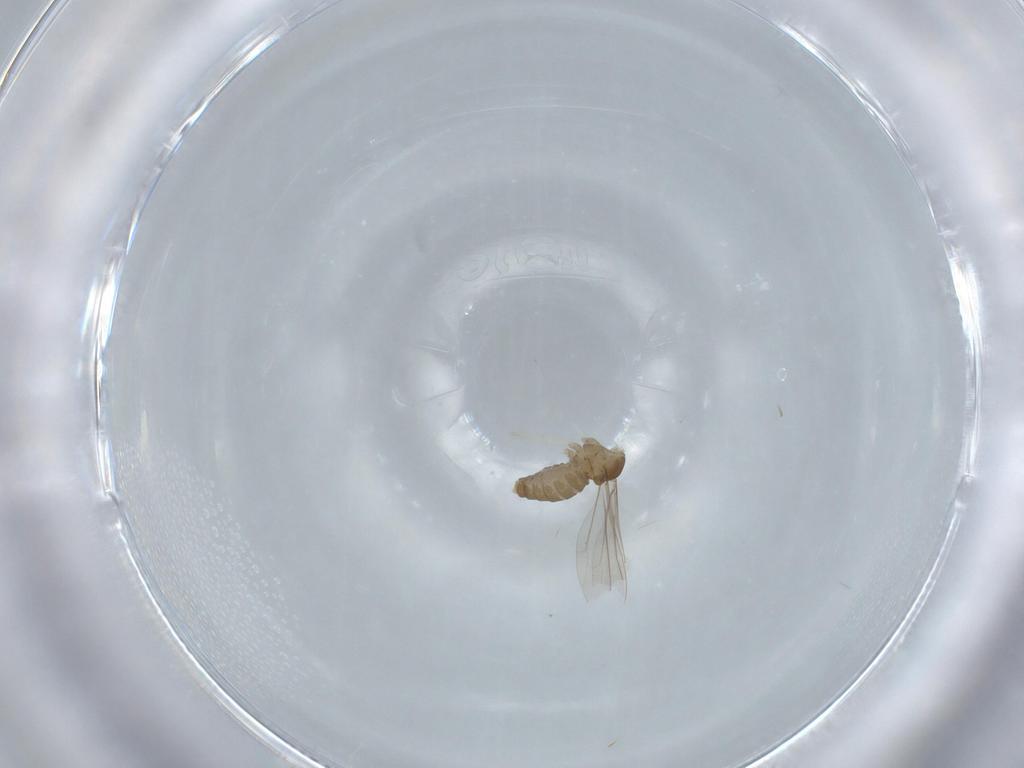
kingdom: Animalia
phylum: Arthropoda
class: Insecta
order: Diptera
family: Cecidomyiidae
